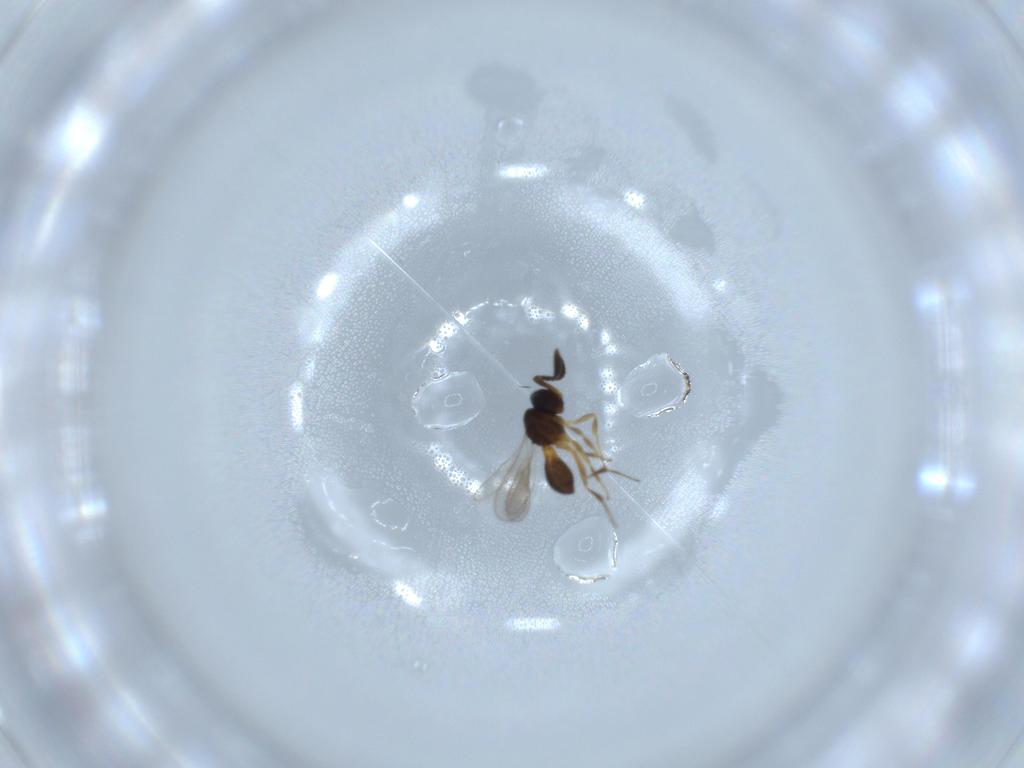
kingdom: Animalia
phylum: Arthropoda
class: Insecta
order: Hymenoptera
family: Scelionidae
